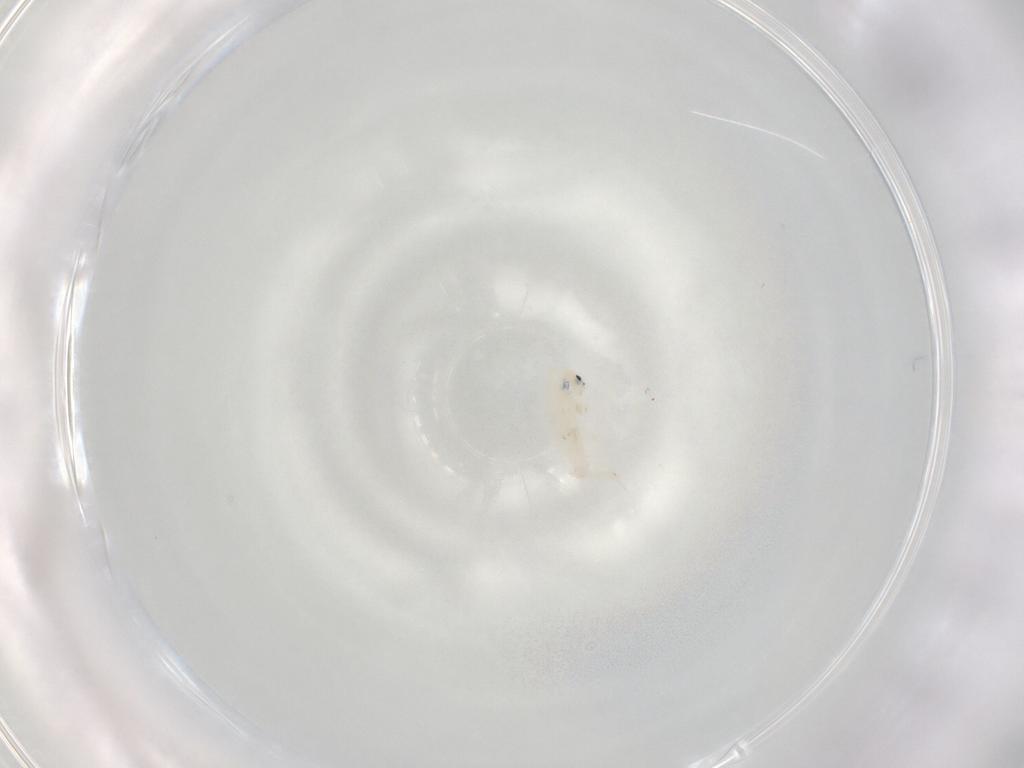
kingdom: Animalia
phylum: Arthropoda
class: Collembola
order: Entomobryomorpha
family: Entomobryidae
